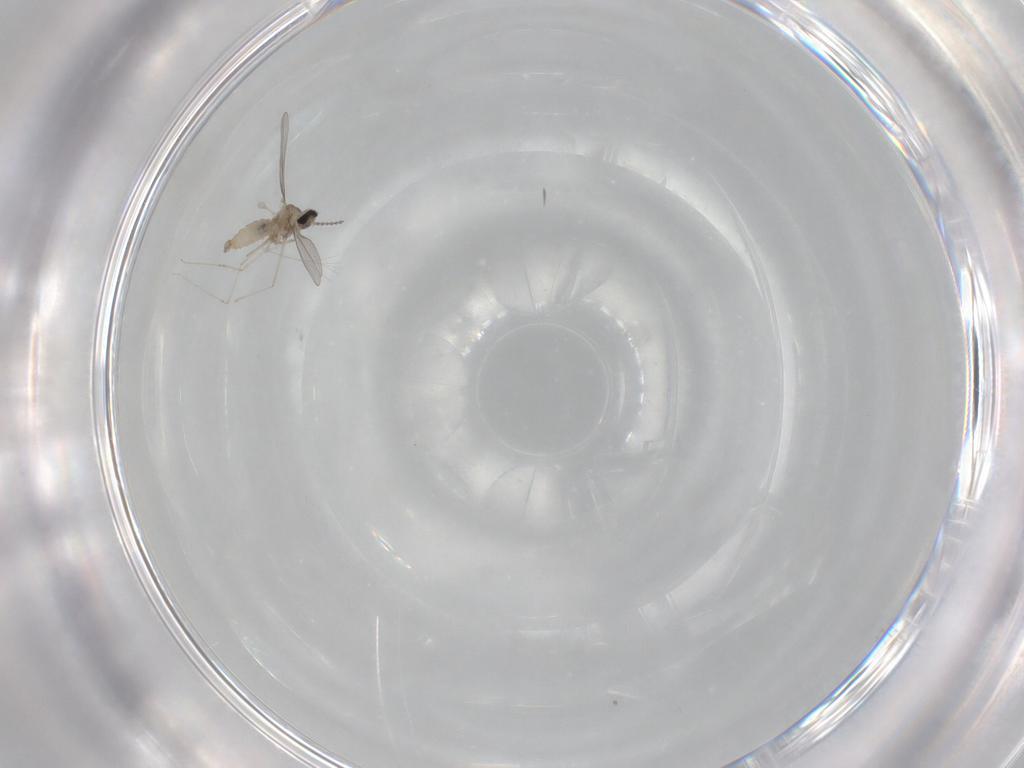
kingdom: Animalia
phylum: Arthropoda
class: Insecta
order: Diptera
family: Cecidomyiidae
